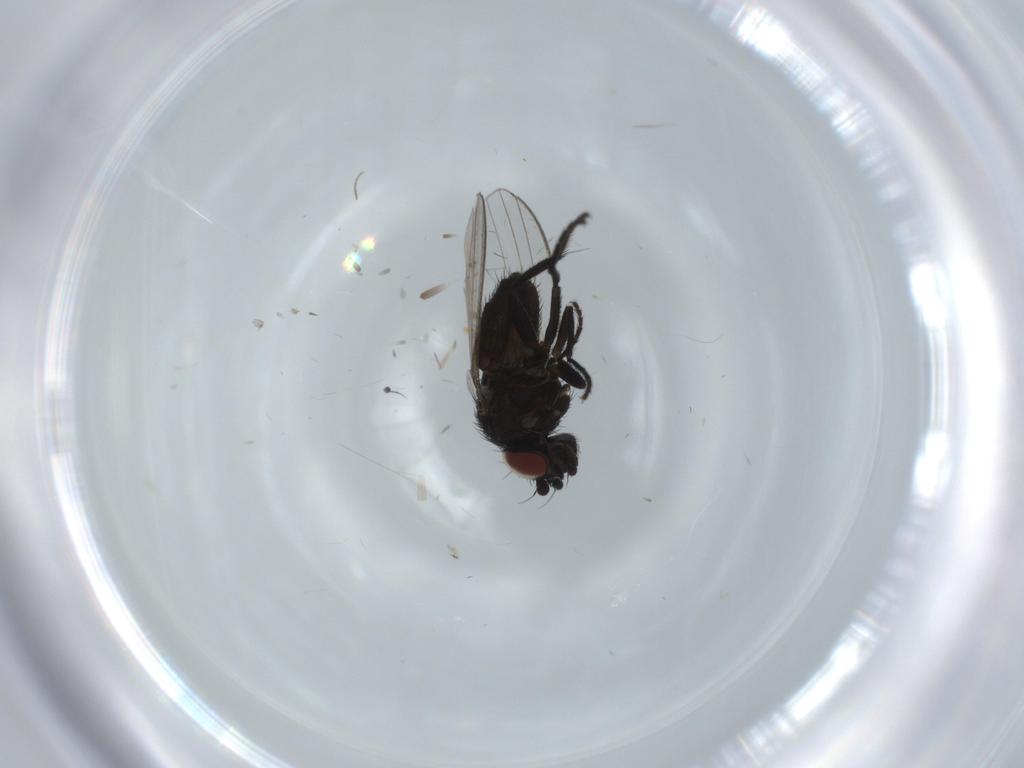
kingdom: Animalia
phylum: Arthropoda
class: Insecta
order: Diptera
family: Milichiidae
